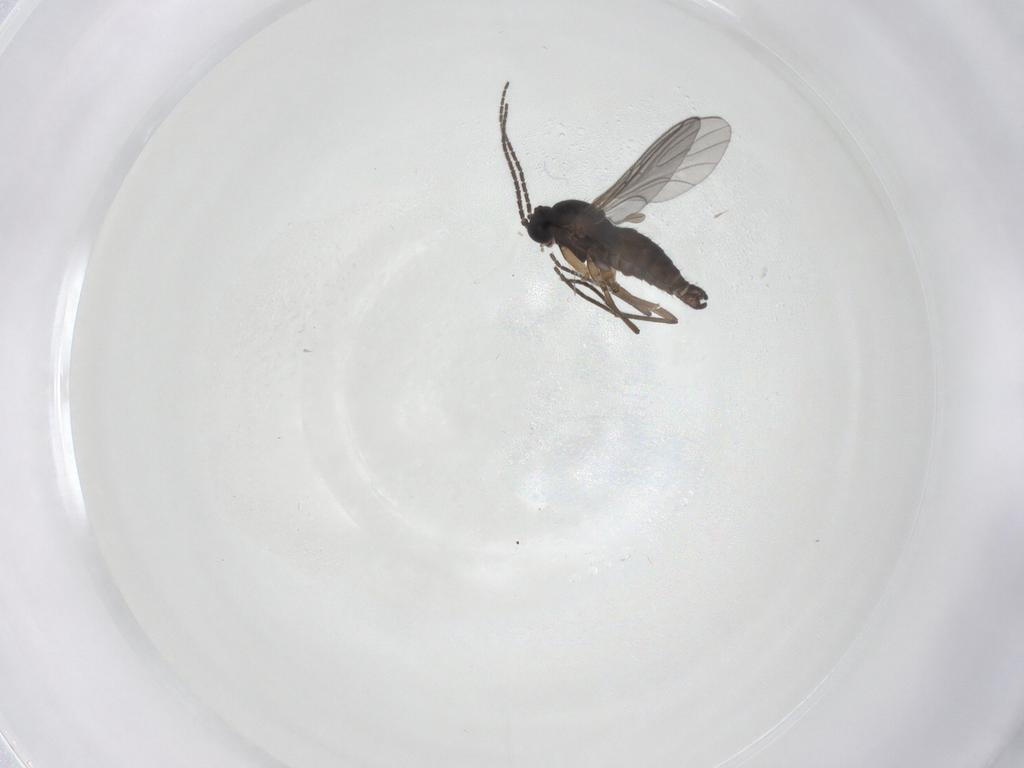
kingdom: Animalia
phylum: Arthropoda
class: Insecta
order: Diptera
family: Sciaridae
